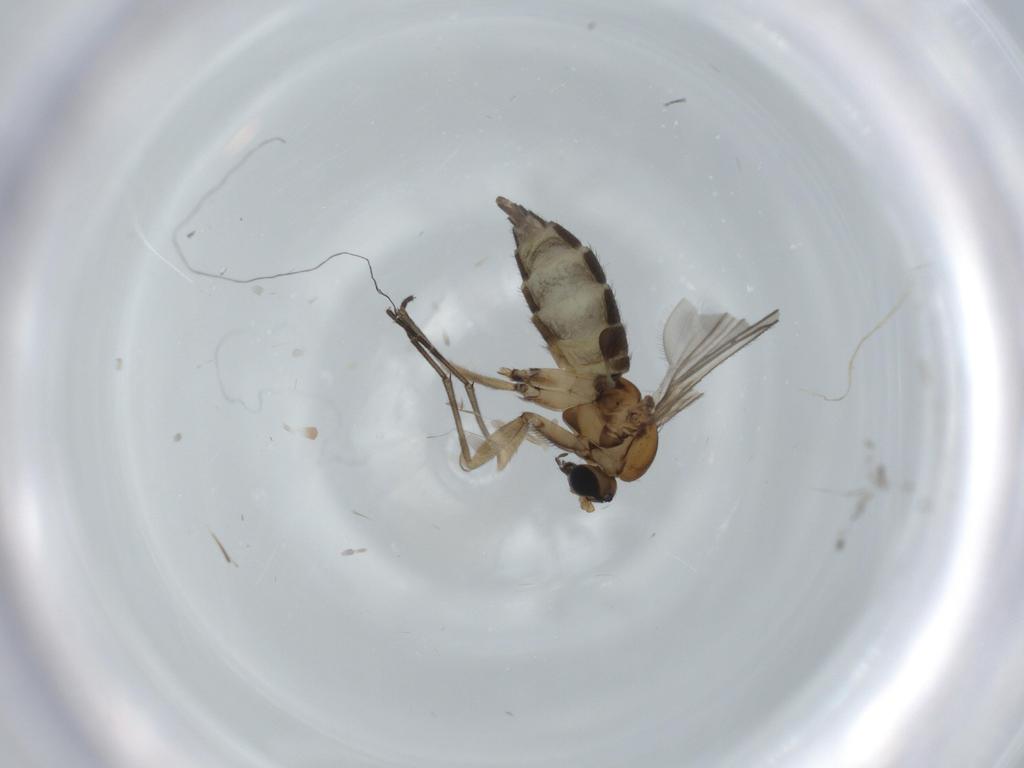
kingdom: Animalia
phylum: Arthropoda
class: Insecta
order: Diptera
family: Sciaridae
